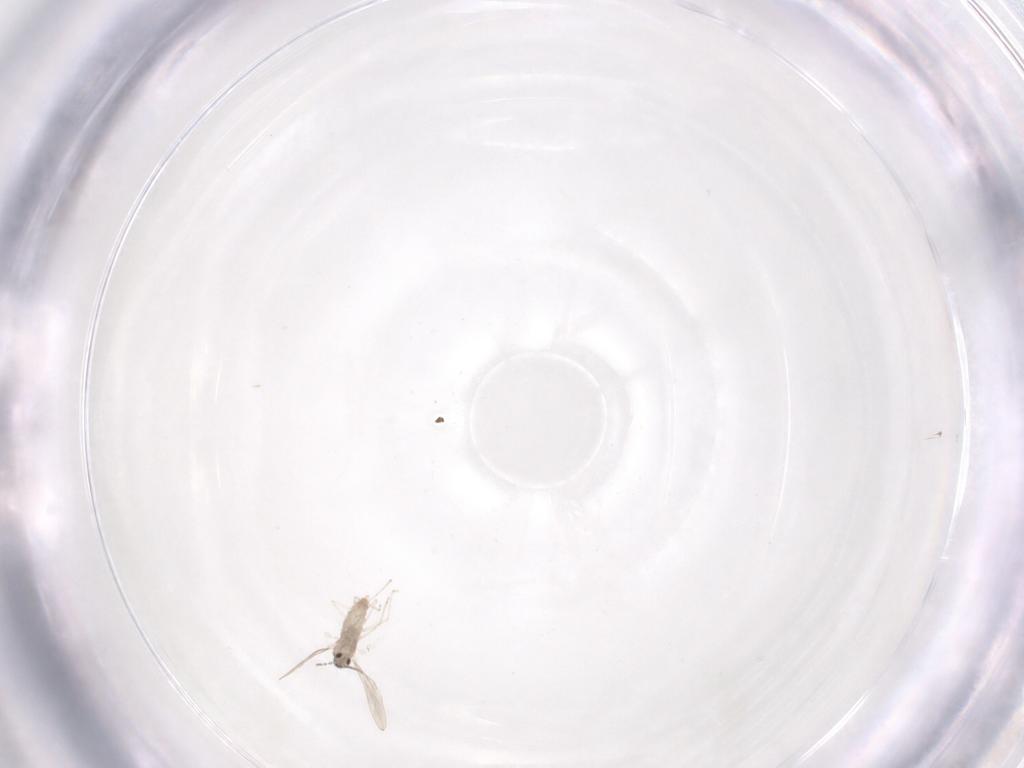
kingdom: Animalia
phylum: Arthropoda
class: Insecta
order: Diptera
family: Cecidomyiidae
